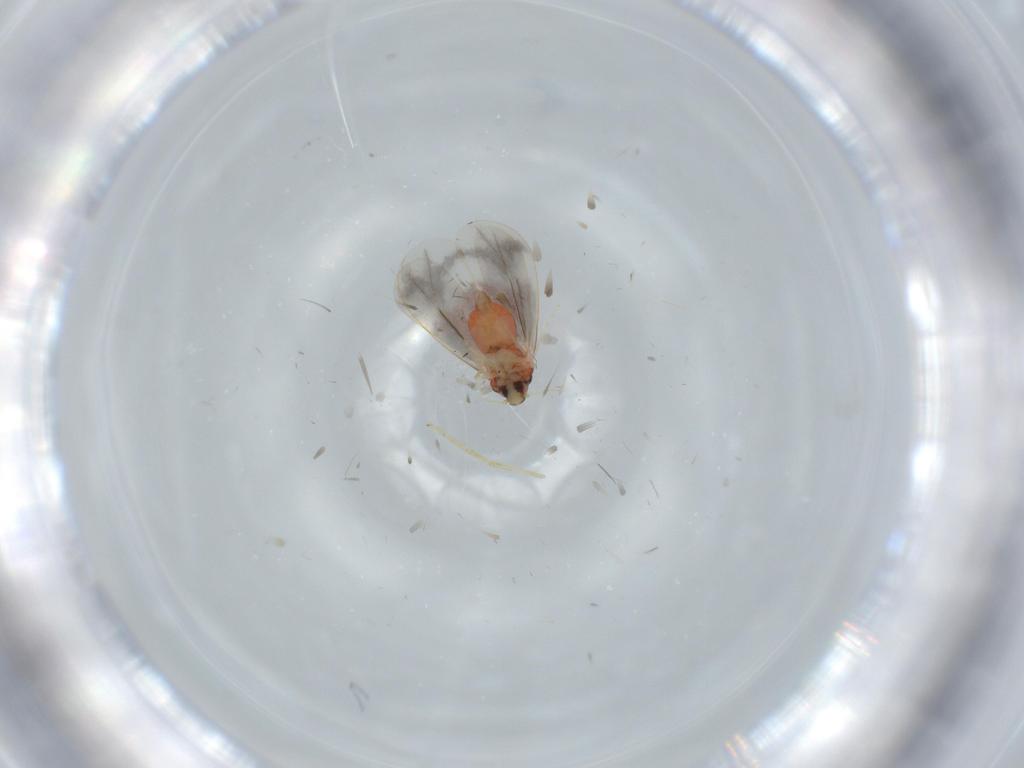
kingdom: Animalia
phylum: Arthropoda
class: Insecta
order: Hemiptera
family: Aleyrodidae
